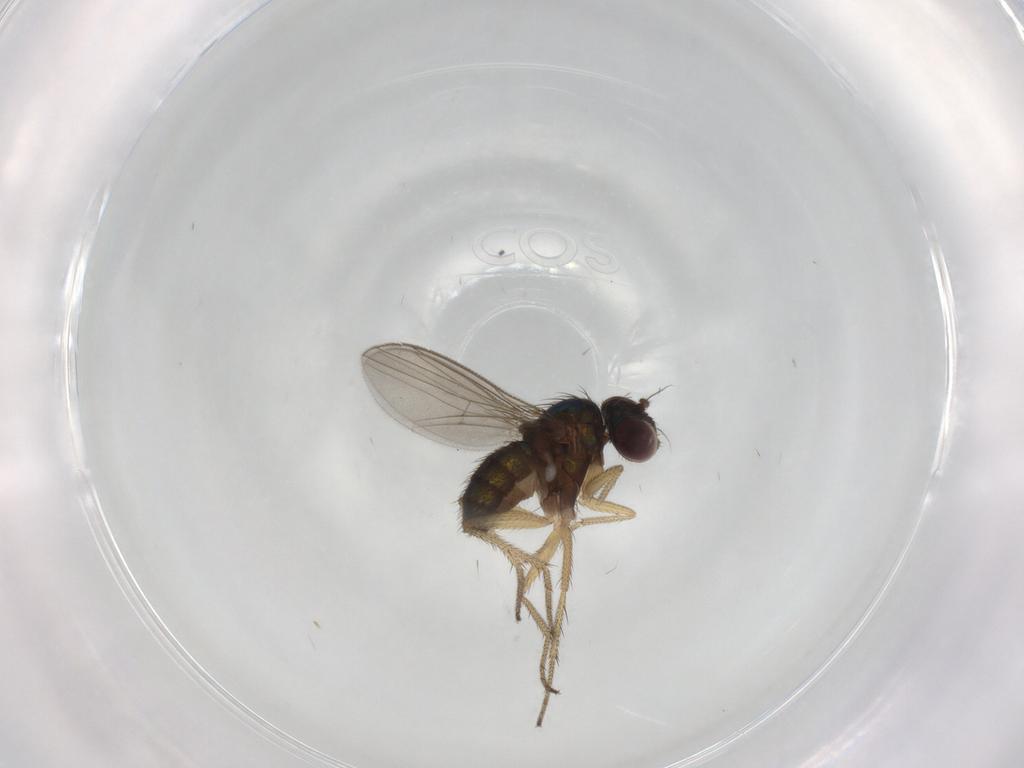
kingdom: Animalia
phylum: Arthropoda
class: Insecta
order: Diptera
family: Dolichopodidae
